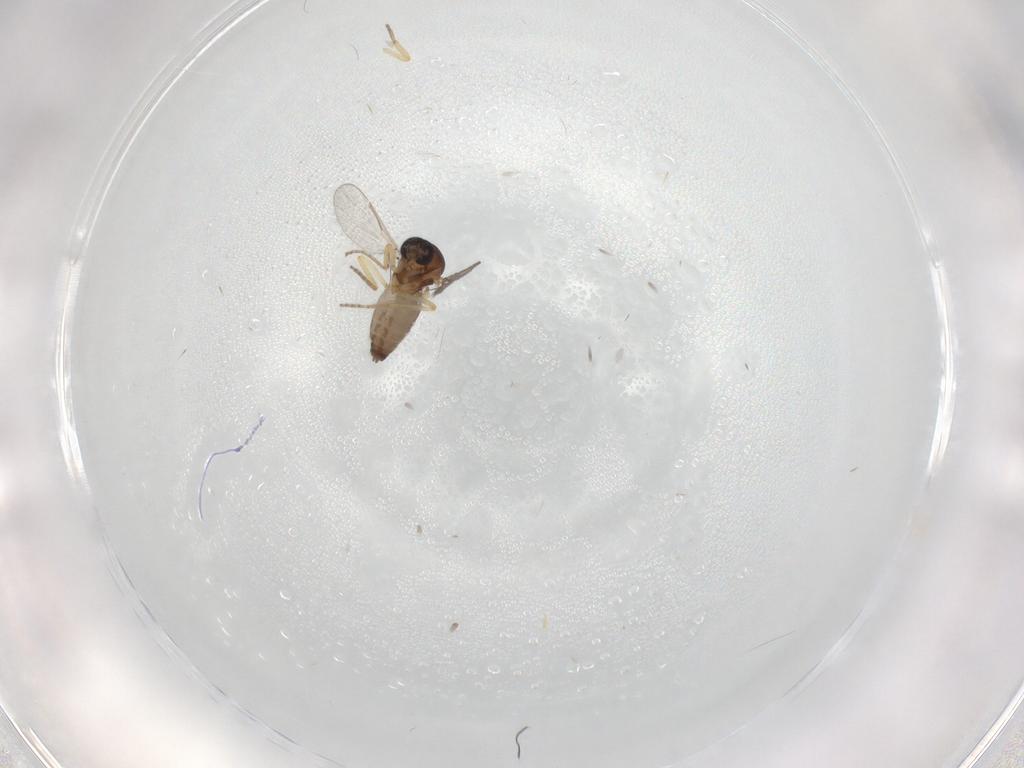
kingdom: Animalia
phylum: Arthropoda
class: Insecta
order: Diptera
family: Ceratopogonidae
